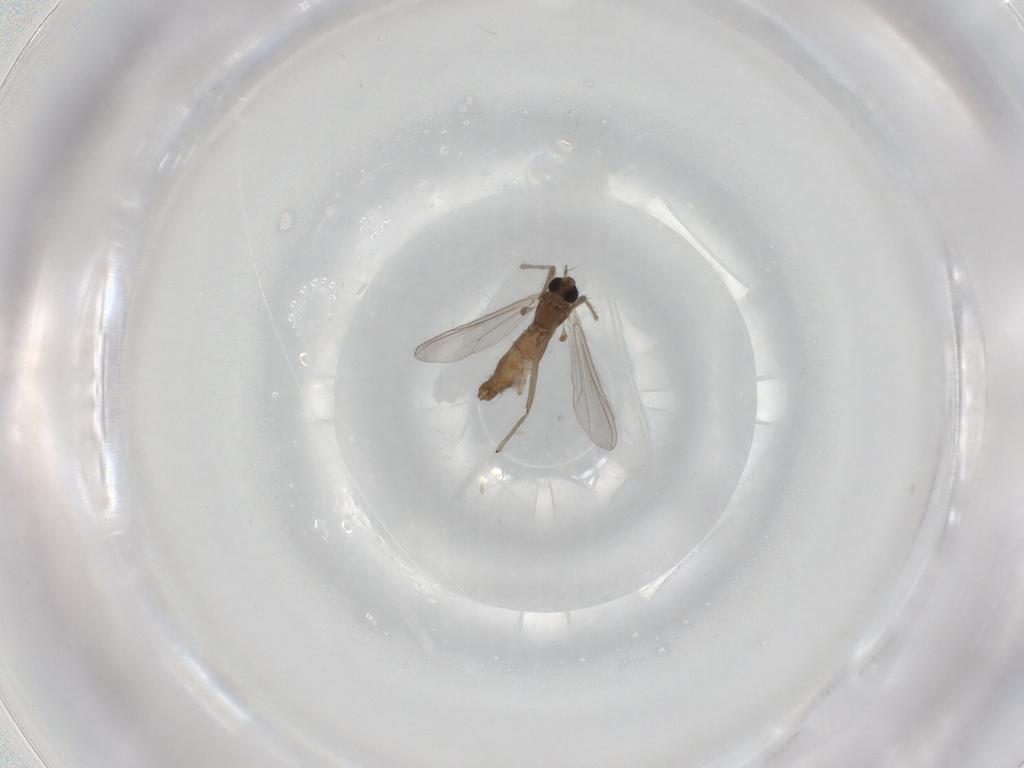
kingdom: Animalia
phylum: Arthropoda
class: Insecta
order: Diptera
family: Chironomidae
